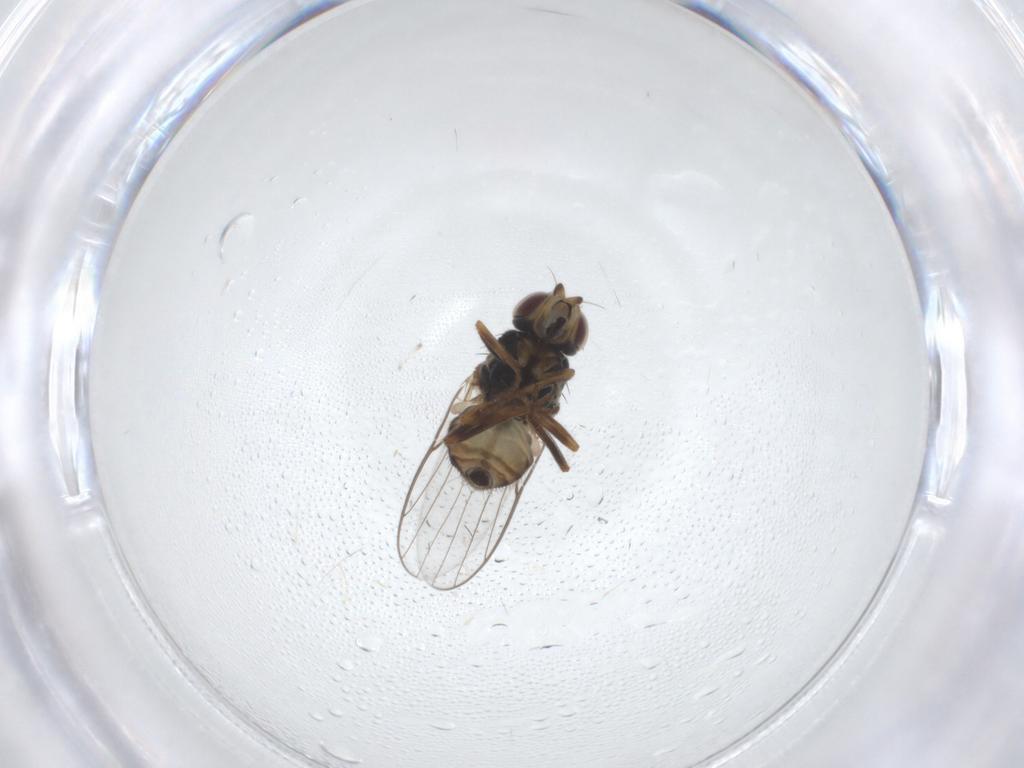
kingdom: Animalia
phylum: Arthropoda
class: Insecta
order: Diptera
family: Chloropidae
